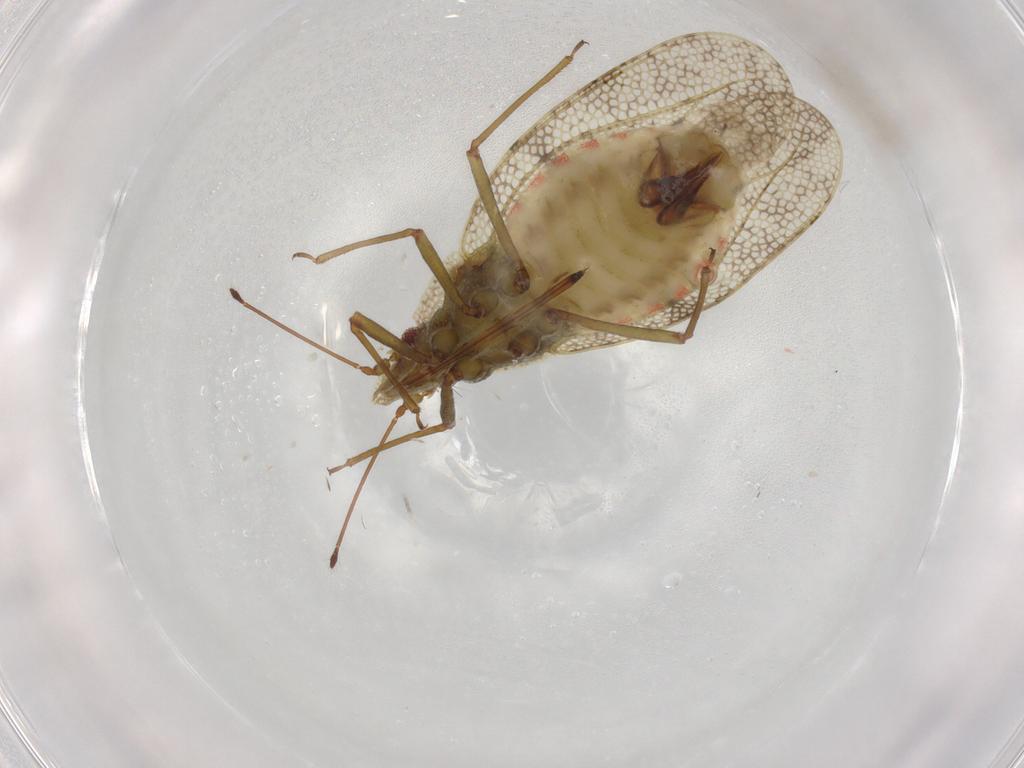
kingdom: Animalia
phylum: Arthropoda
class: Insecta
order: Hemiptera
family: Tingidae
